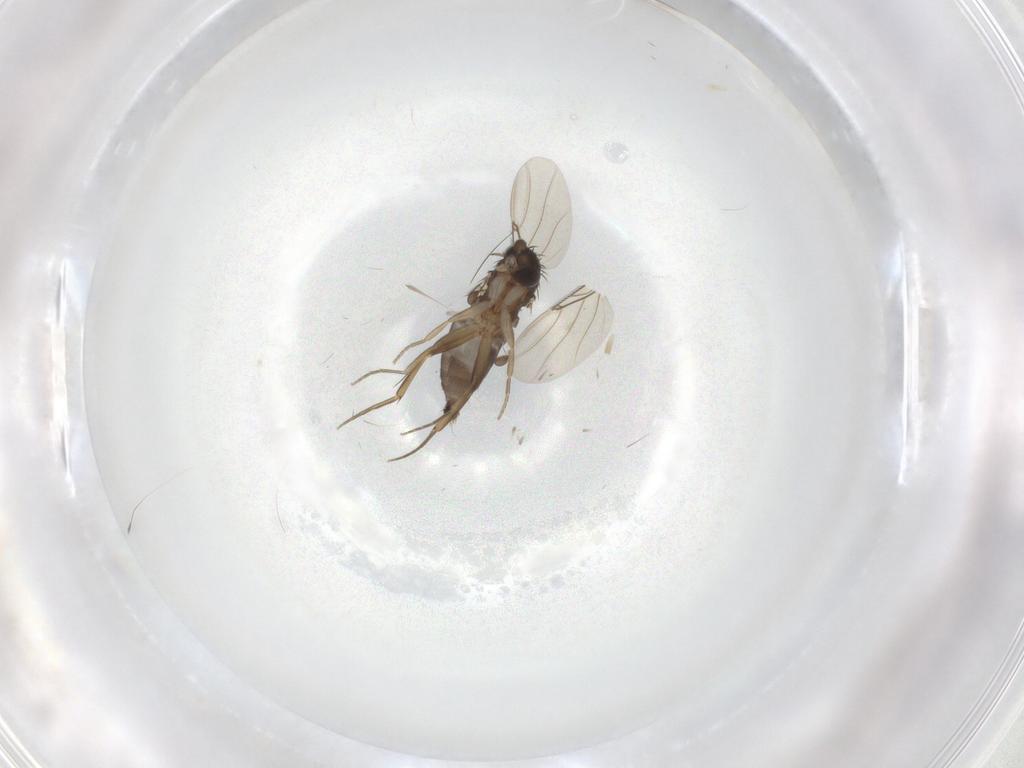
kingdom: Animalia
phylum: Arthropoda
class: Insecta
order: Diptera
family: Phoridae
